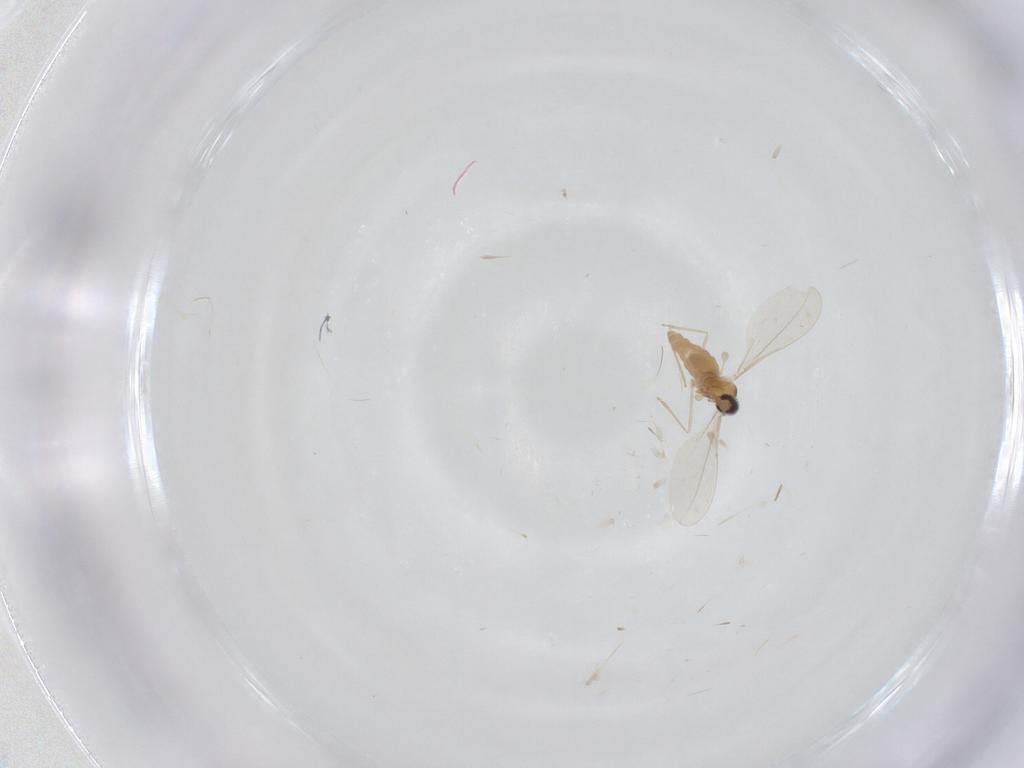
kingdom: Animalia
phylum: Arthropoda
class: Insecta
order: Diptera
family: Cecidomyiidae
